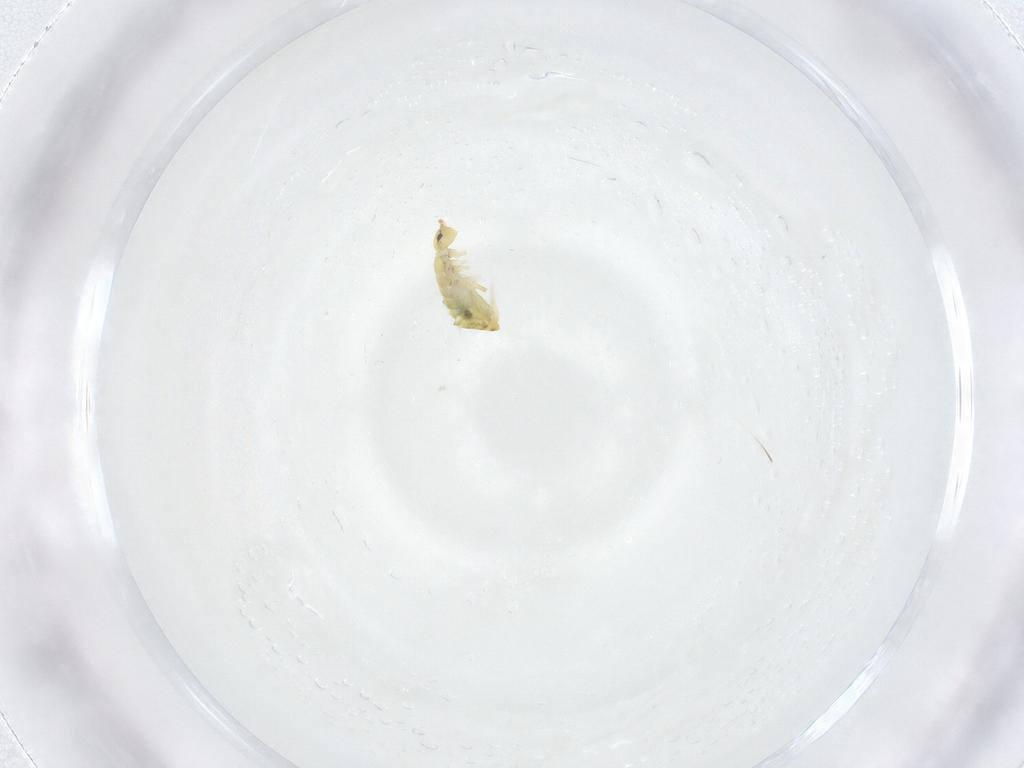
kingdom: Animalia
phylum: Arthropoda
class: Collembola
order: Entomobryomorpha
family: Entomobryidae
